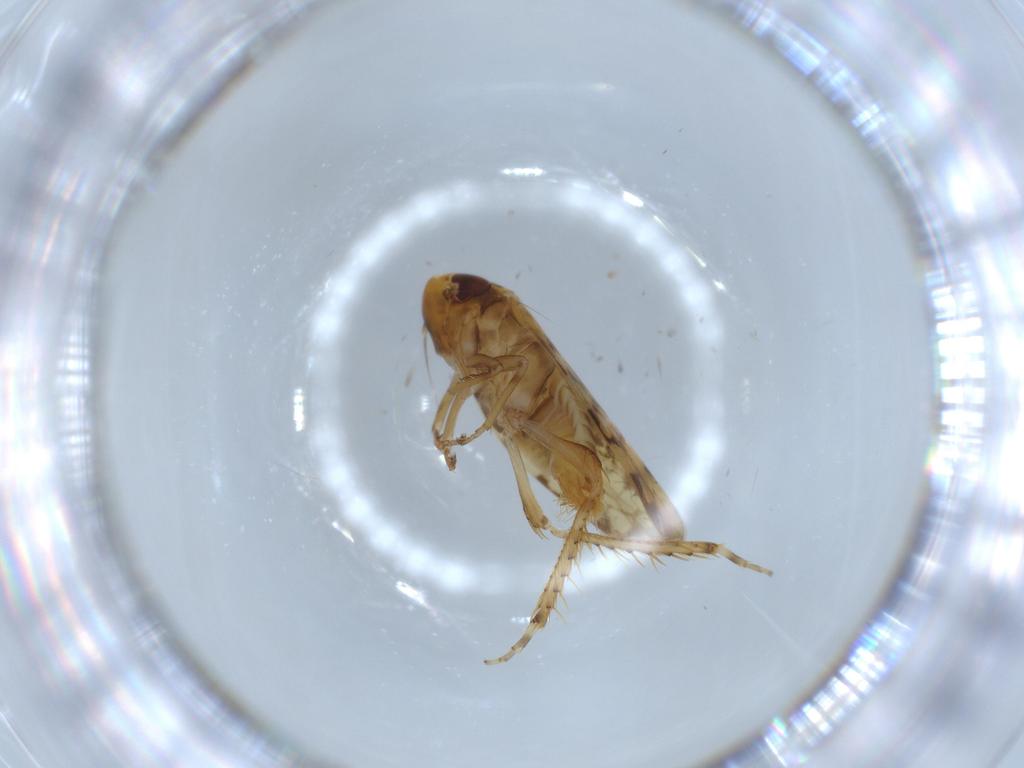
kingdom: Animalia
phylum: Arthropoda
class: Insecta
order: Hemiptera
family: Cicadellidae
